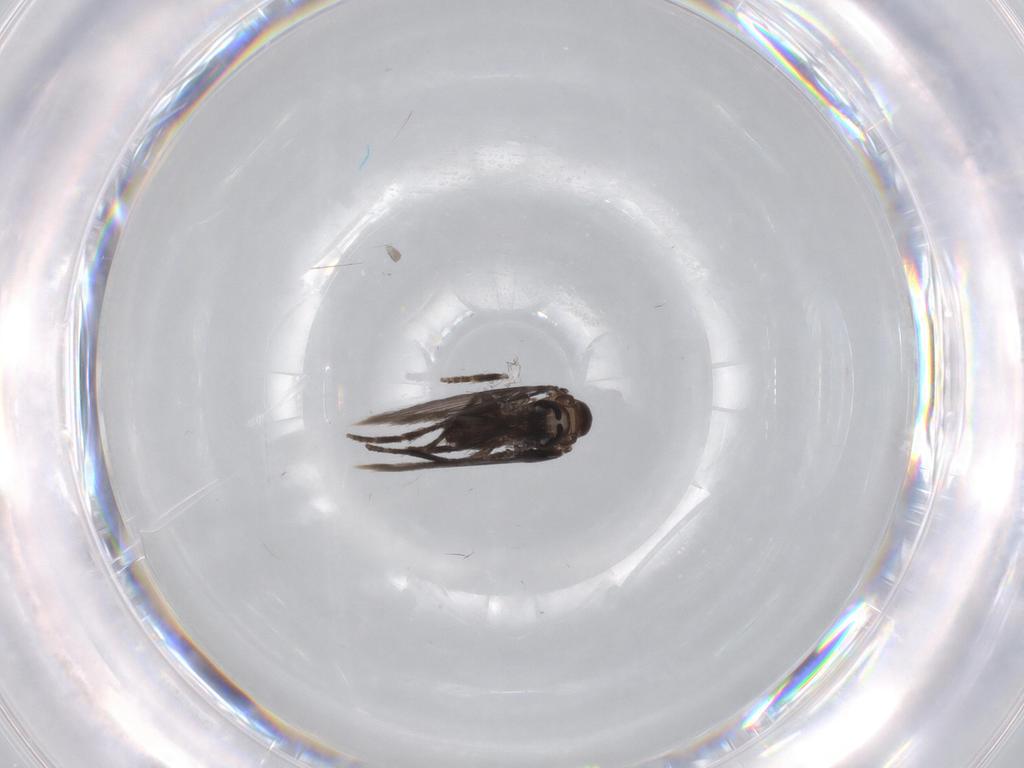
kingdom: Animalia
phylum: Arthropoda
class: Insecta
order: Diptera
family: Psychodidae
